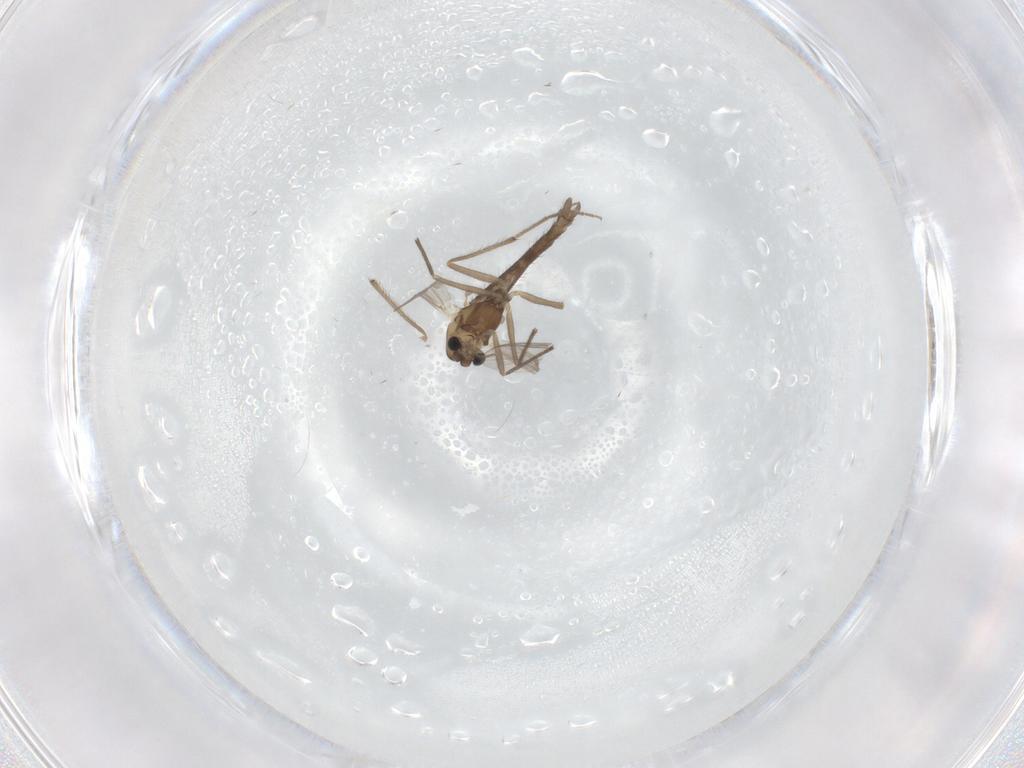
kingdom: Animalia
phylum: Arthropoda
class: Insecta
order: Diptera
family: Chironomidae
